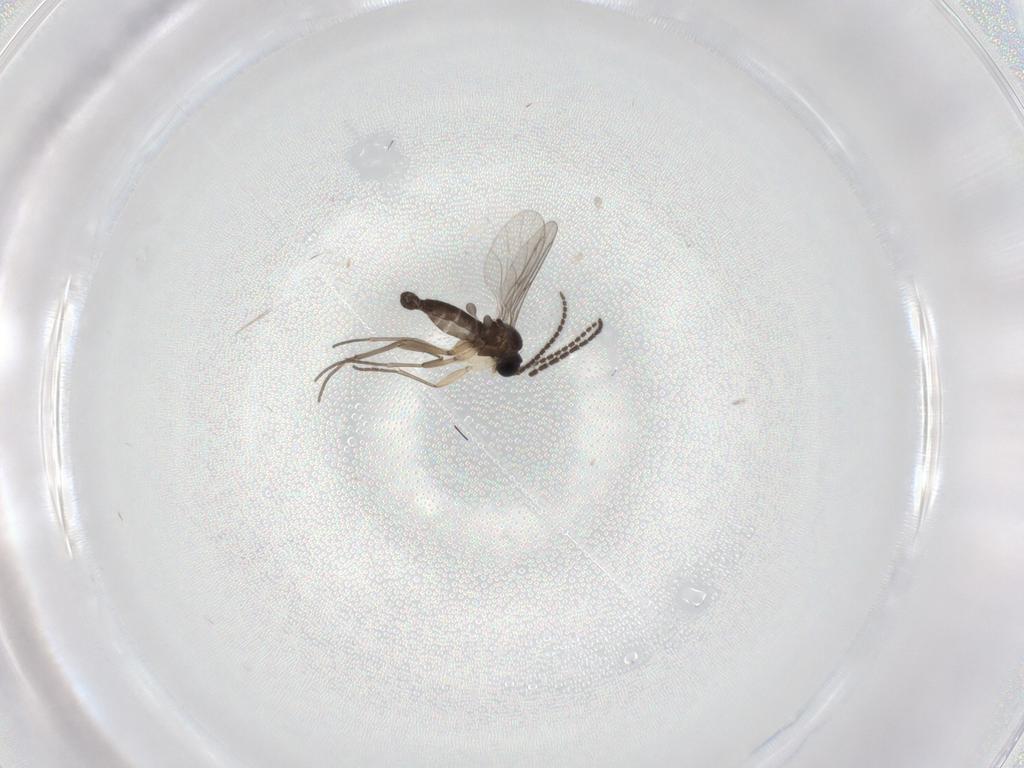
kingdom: Animalia
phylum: Arthropoda
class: Insecta
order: Diptera
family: Sciaridae
